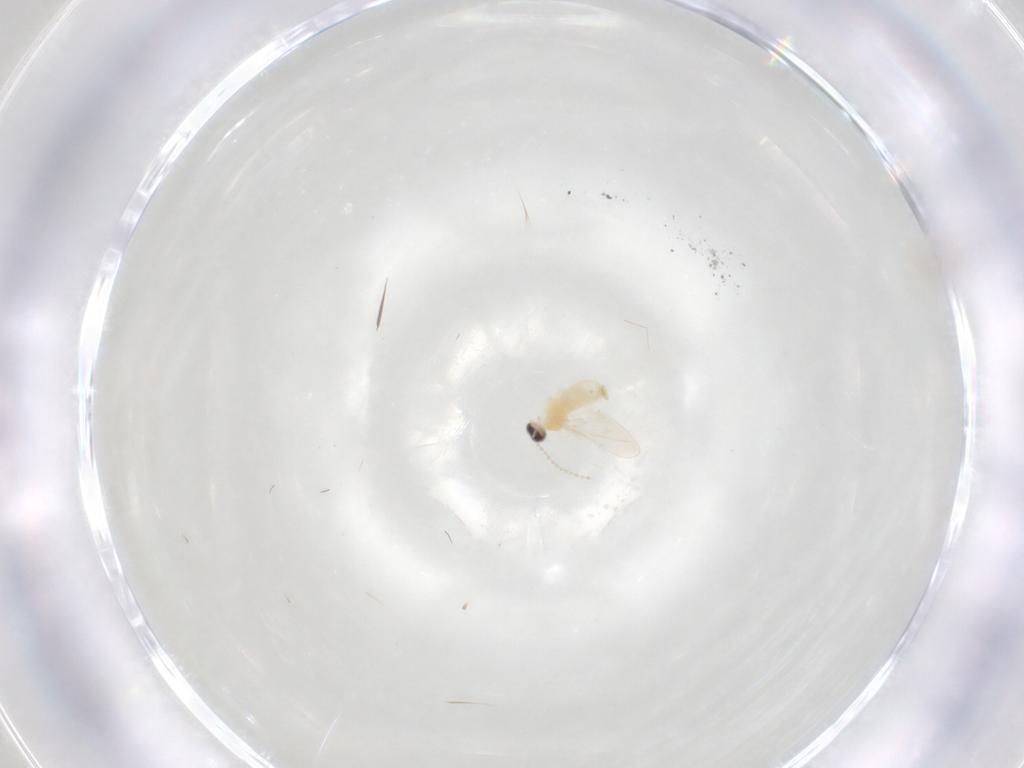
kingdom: Animalia
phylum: Arthropoda
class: Insecta
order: Diptera
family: Cecidomyiidae
